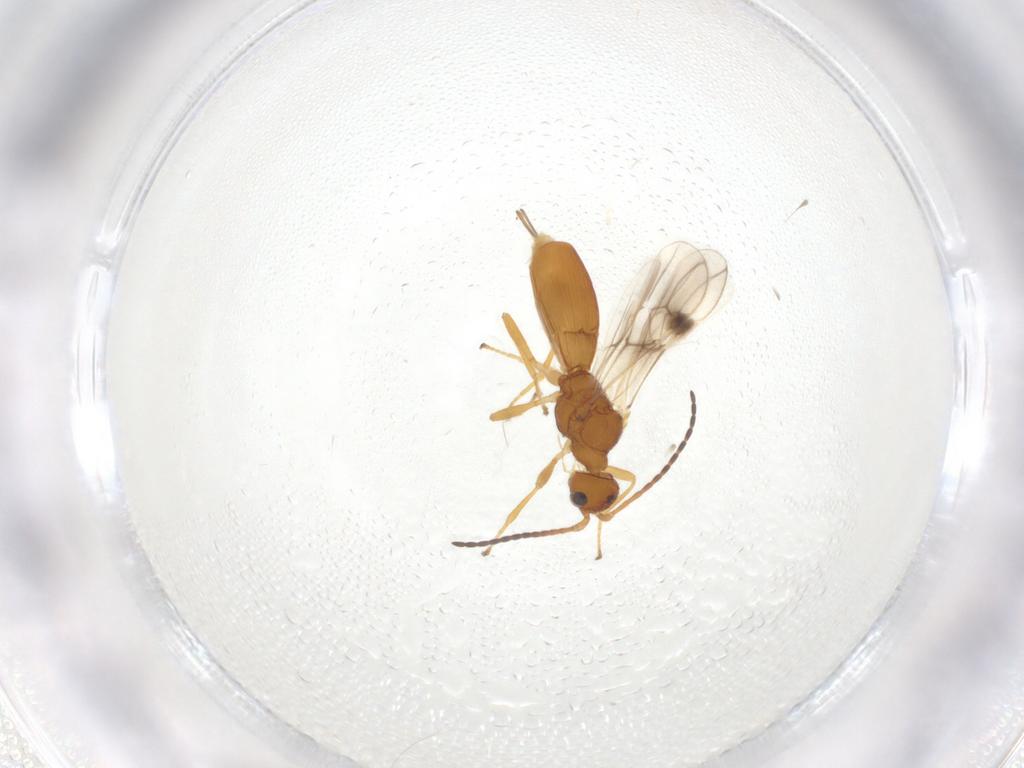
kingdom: Animalia
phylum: Arthropoda
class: Insecta
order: Hymenoptera
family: Braconidae
